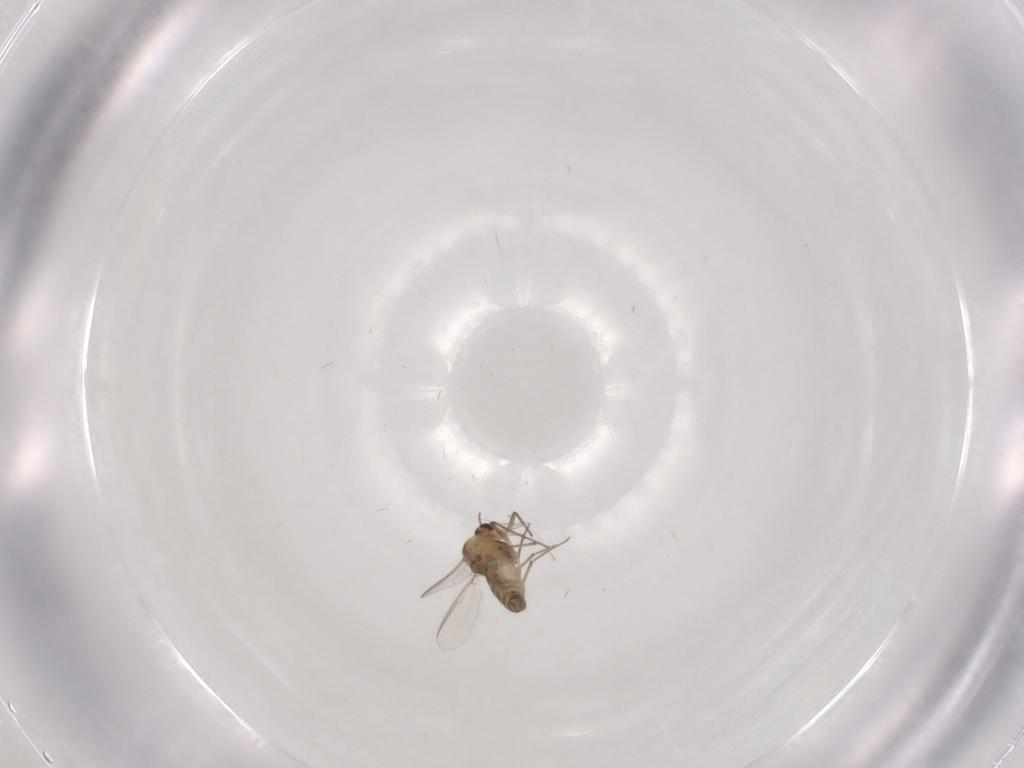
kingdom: Animalia
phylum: Arthropoda
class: Insecta
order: Diptera
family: Chironomidae
